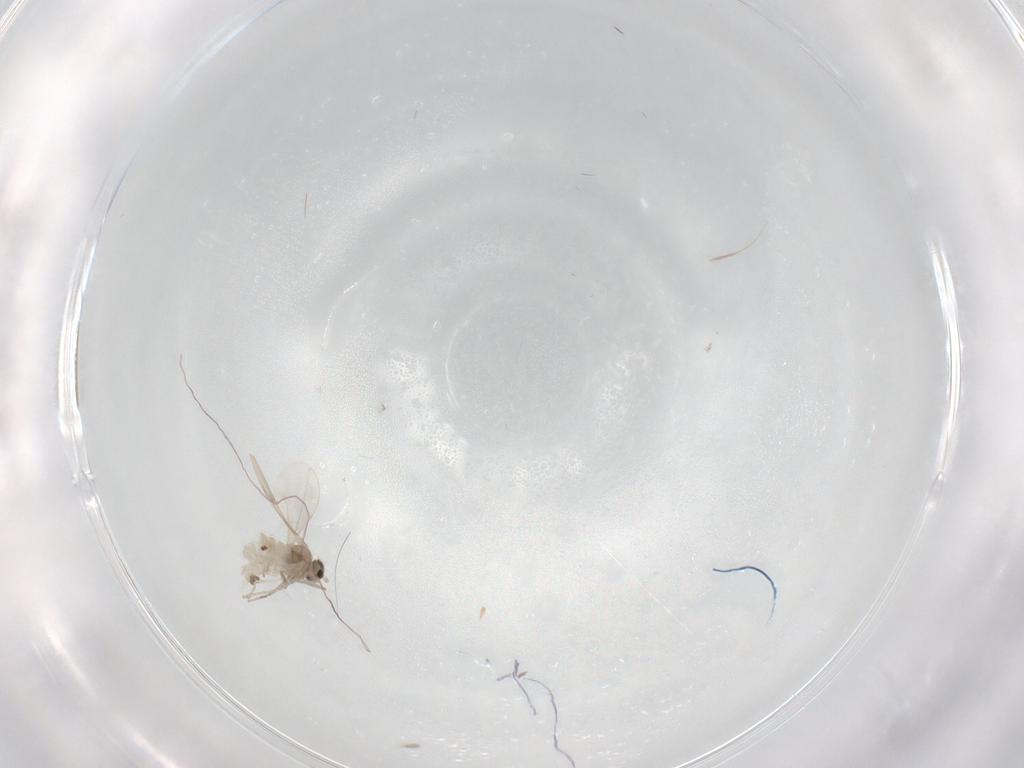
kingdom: Animalia
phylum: Arthropoda
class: Insecta
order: Diptera
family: Cecidomyiidae
